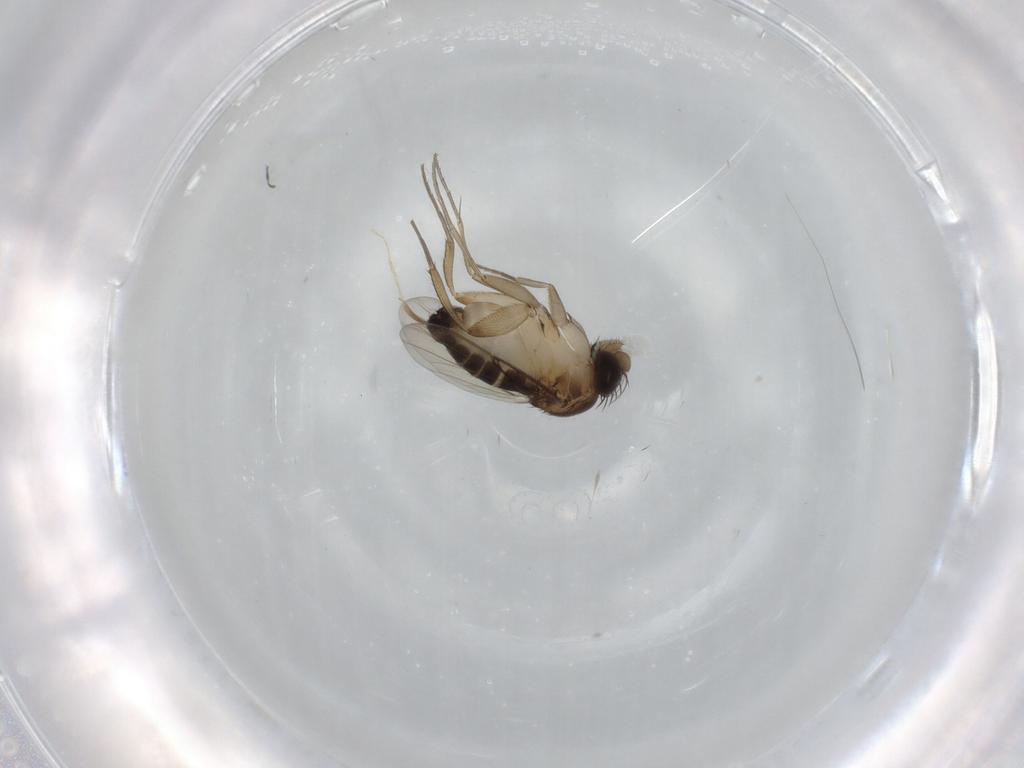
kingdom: Animalia
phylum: Arthropoda
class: Insecta
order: Diptera
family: Phoridae
